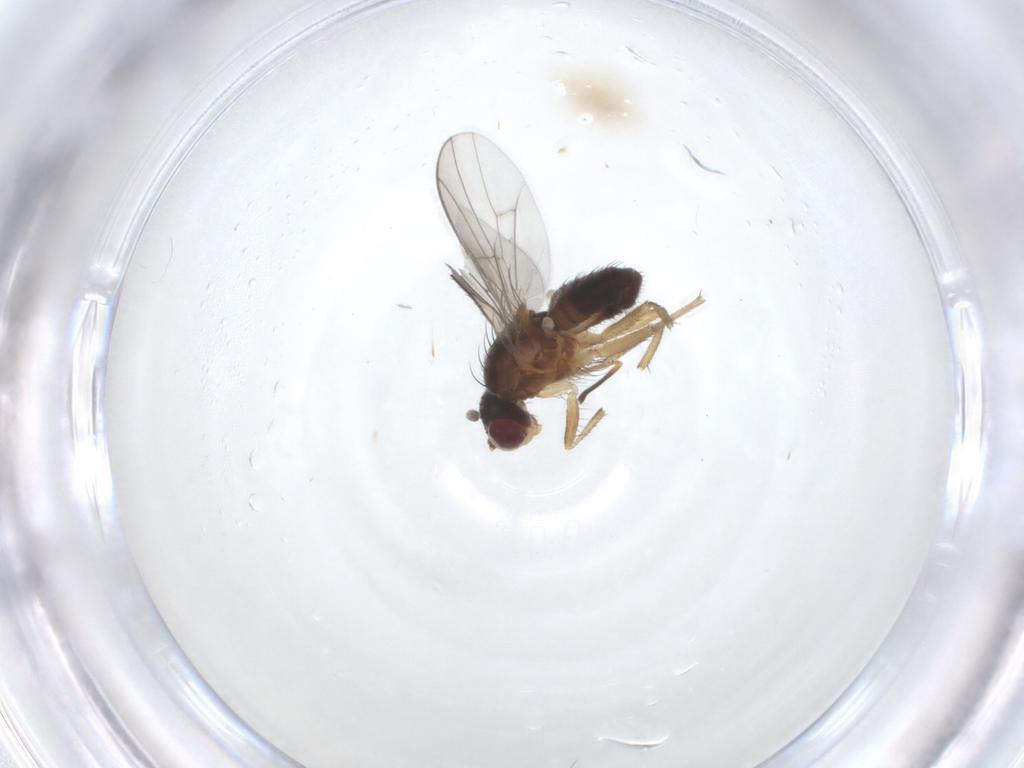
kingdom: Animalia
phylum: Arthropoda
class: Insecta
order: Diptera
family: Heleomyzidae
